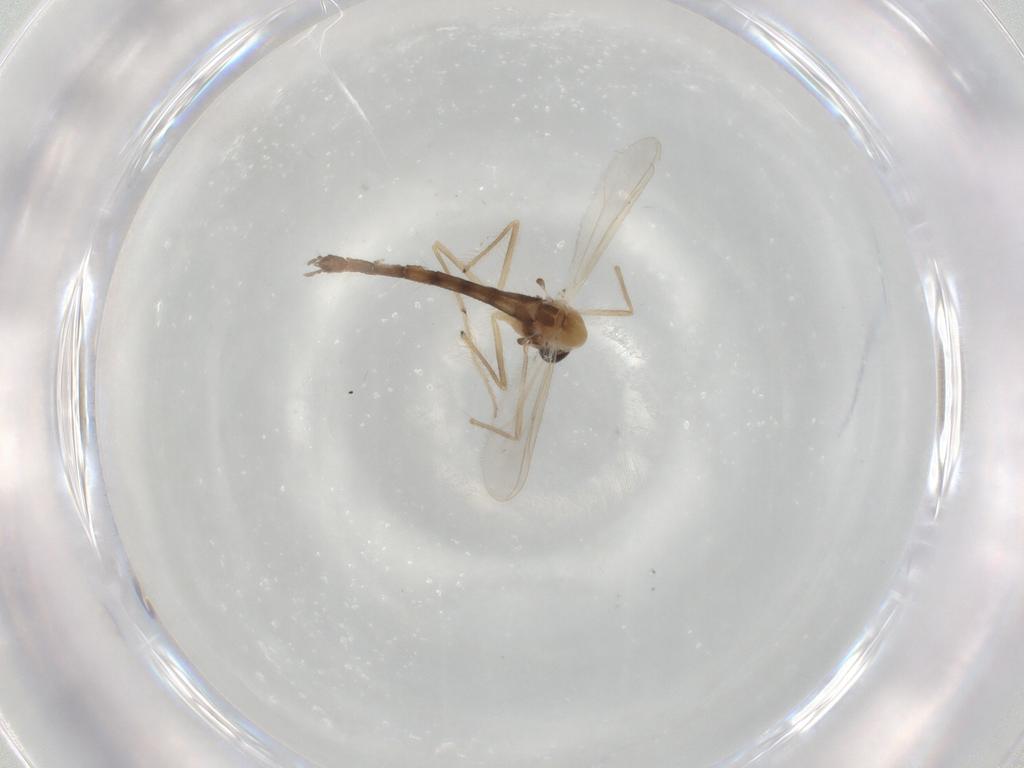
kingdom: Animalia
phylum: Arthropoda
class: Insecta
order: Diptera
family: Chironomidae
